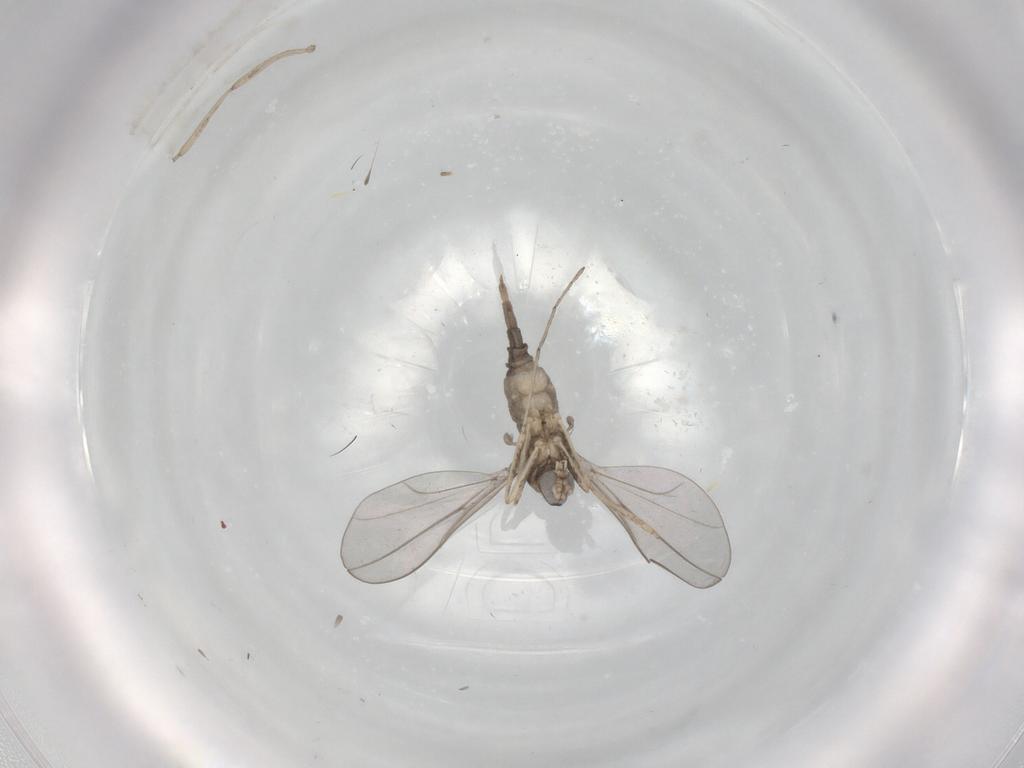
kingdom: Animalia
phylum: Arthropoda
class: Insecta
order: Diptera
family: Cecidomyiidae
